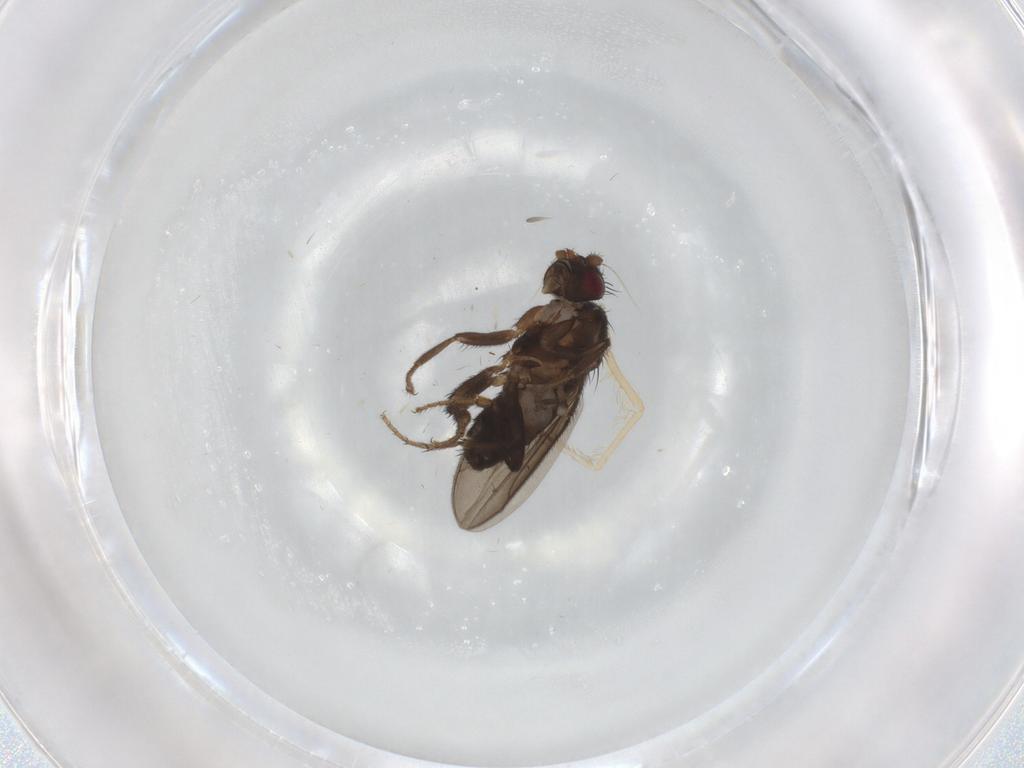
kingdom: Animalia
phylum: Arthropoda
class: Insecta
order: Diptera
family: Sphaeroceridae
